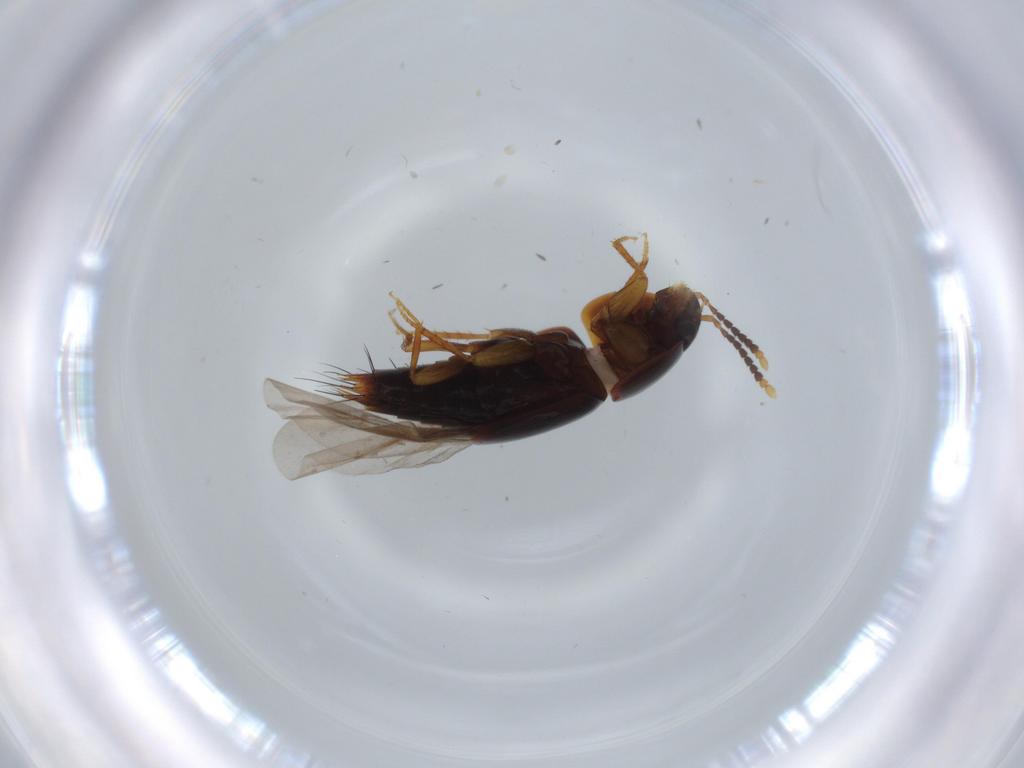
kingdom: Animalia
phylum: Arthropoda
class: Insecta
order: Coleoptera
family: Staphylinidae
